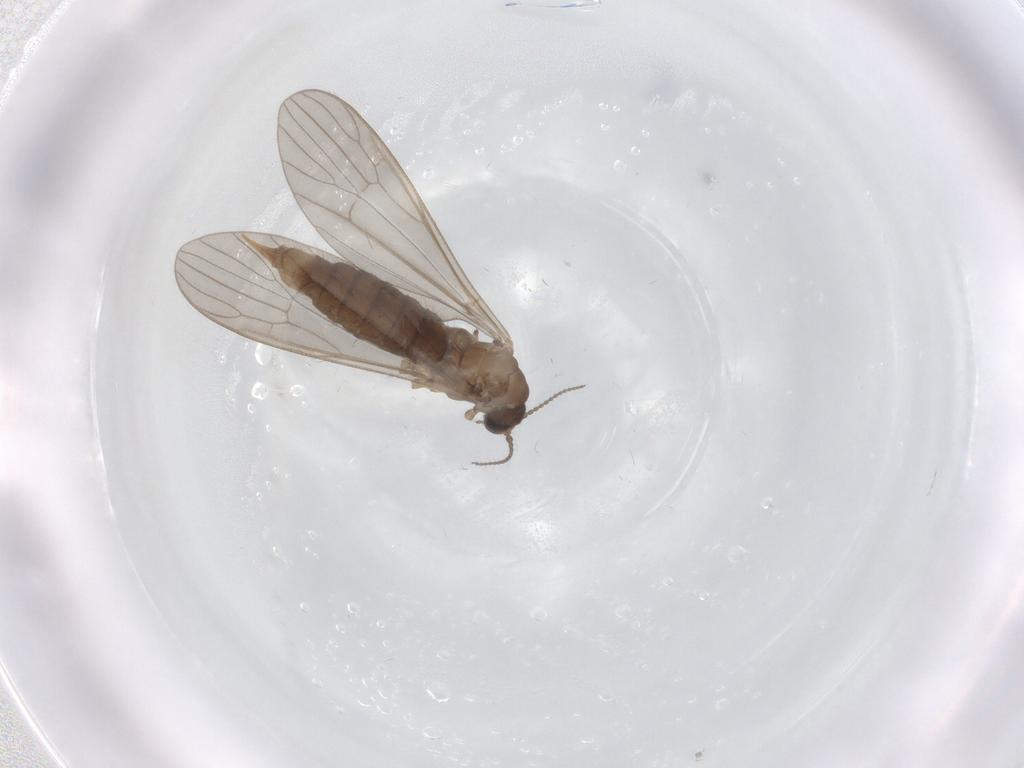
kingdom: Animalia
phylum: Arthropoda
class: Insecta
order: Diptera
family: Limoniidae
